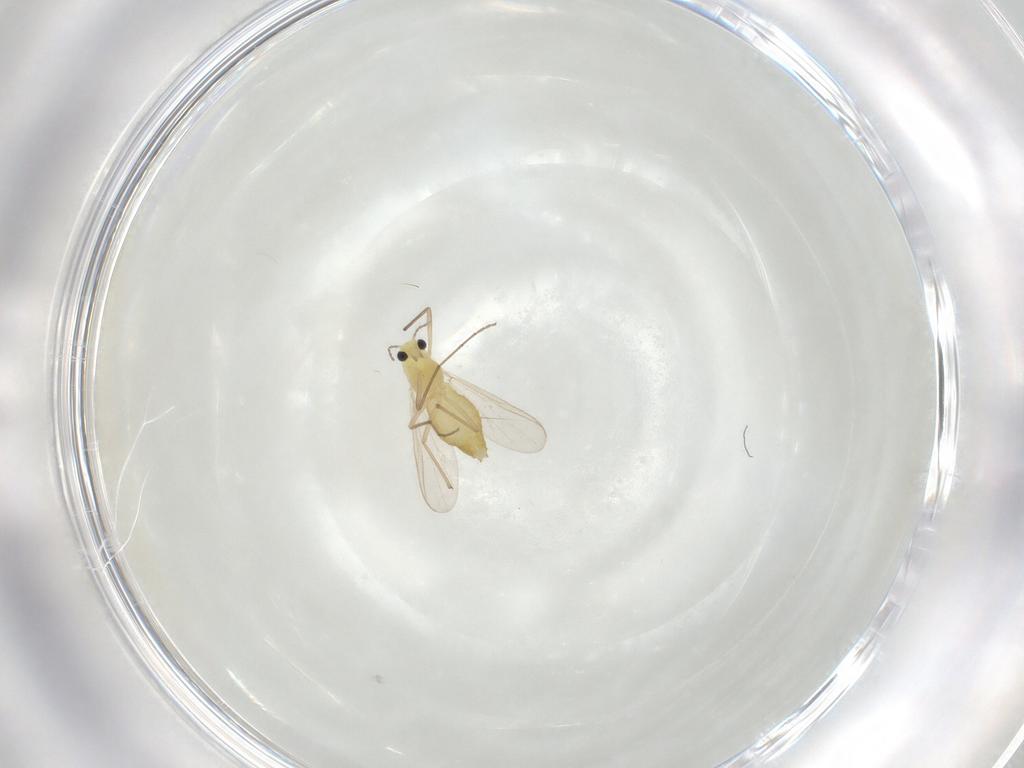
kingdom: Animalia
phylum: Arthropoda
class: Insecta
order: Diptera
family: Chironomidae
